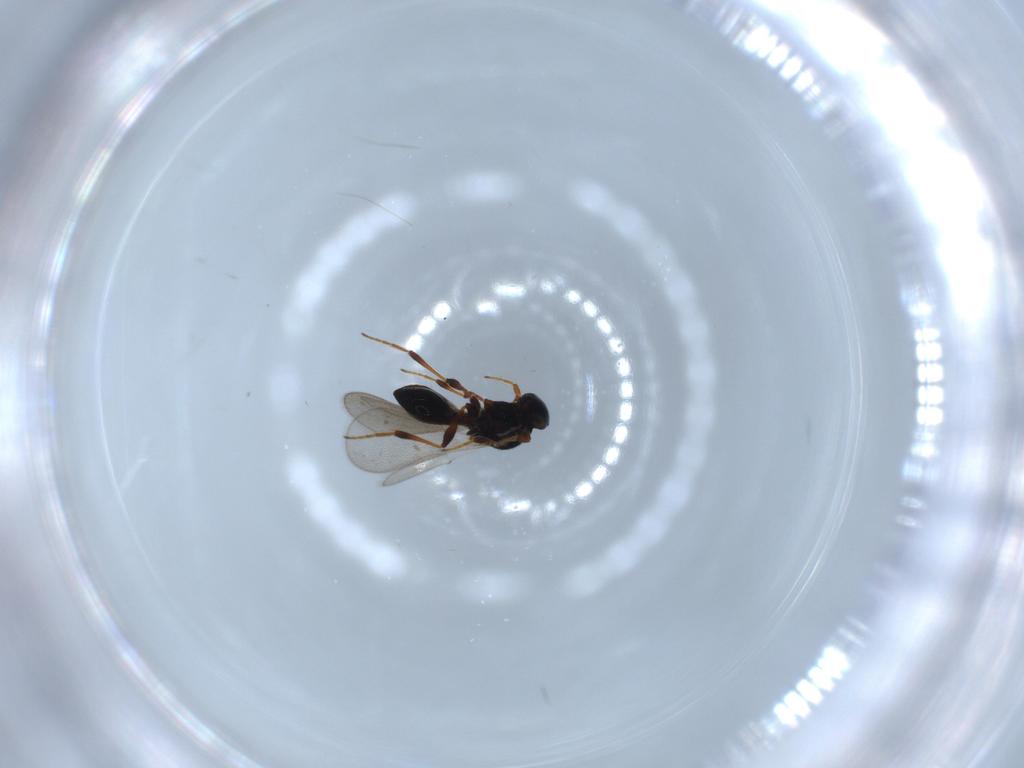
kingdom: Animalia
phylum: Arthropoda
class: Insecta
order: Hymenoptera
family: Platygastridae
